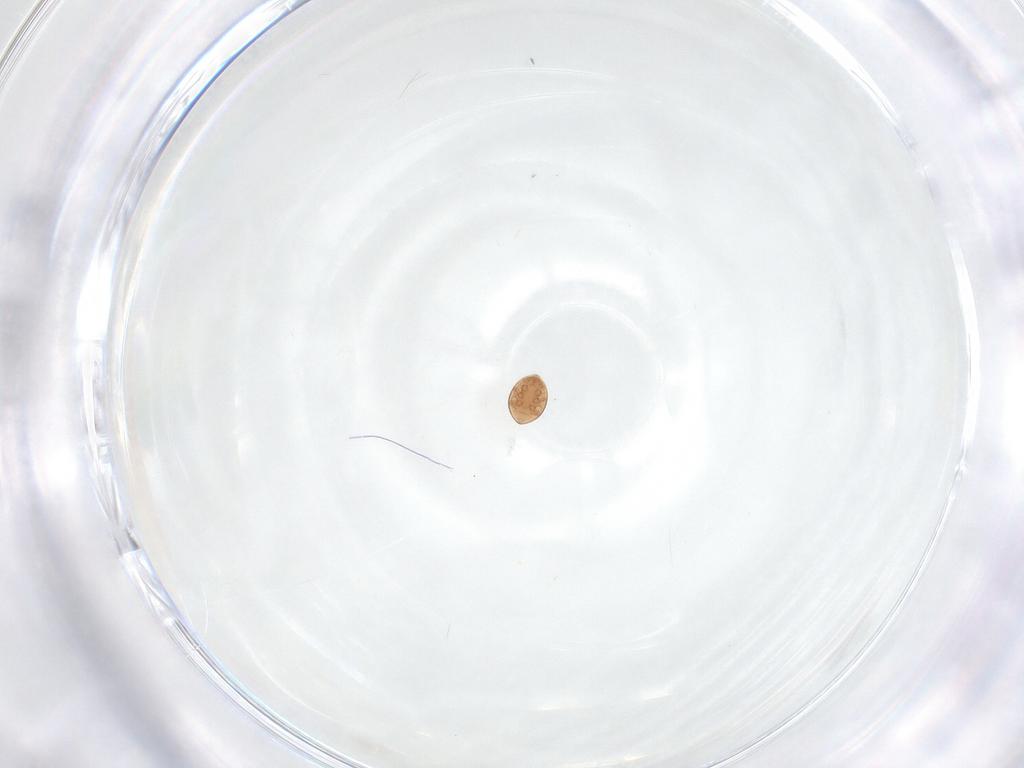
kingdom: Animalia
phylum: Arthropoda
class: Arachnida
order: Mesostigmata
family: Trematuridae
